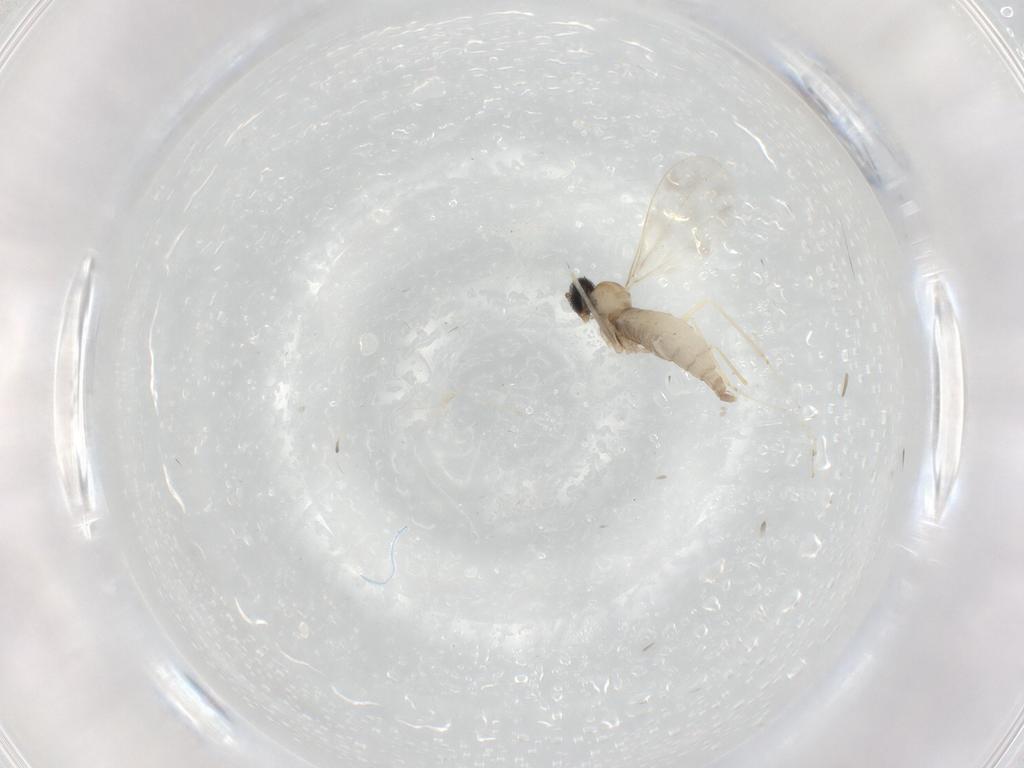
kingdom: Animalia
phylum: Arthropoda
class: Insecta
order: Diptera
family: Cecidomyiidae
